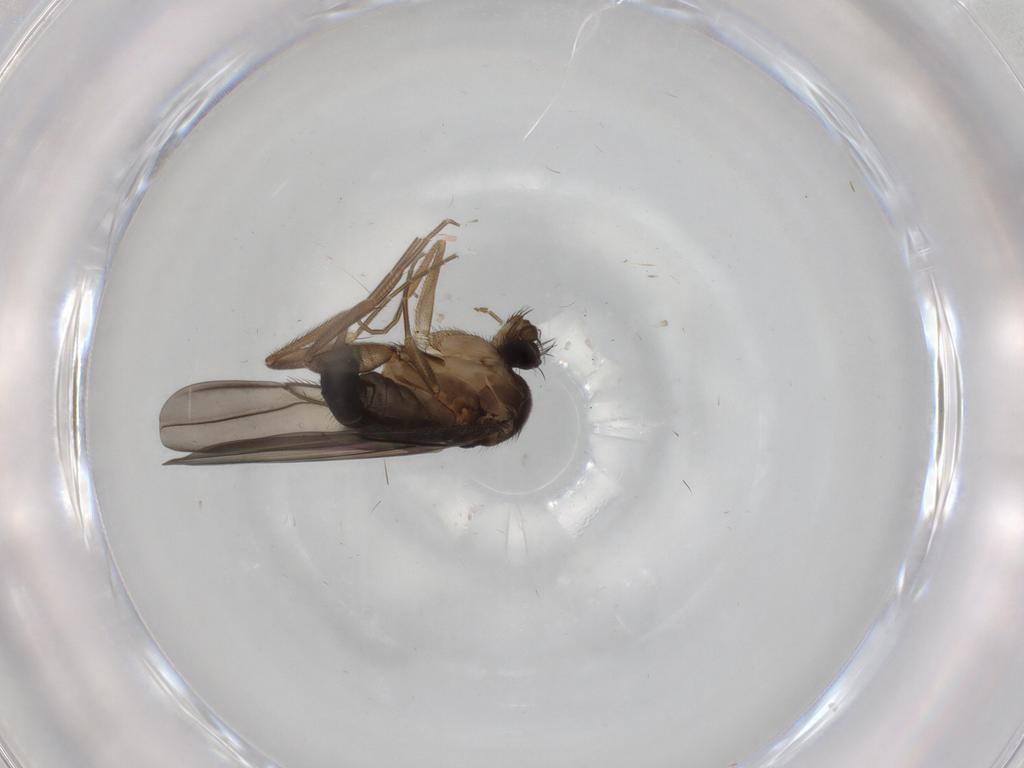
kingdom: Animalia
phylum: Arthropoda
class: Insecta
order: Diptera
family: Ceratopogonidae
